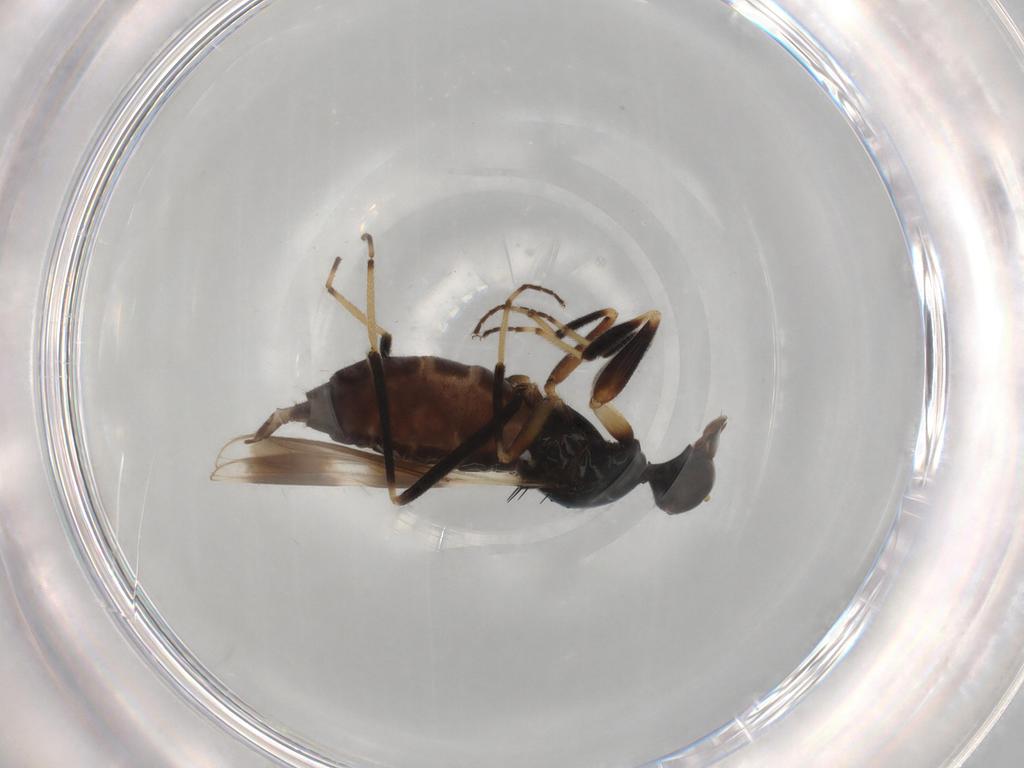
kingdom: Animalia
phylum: Arthropoda
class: Insecta
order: Diptera
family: Hybotidae
